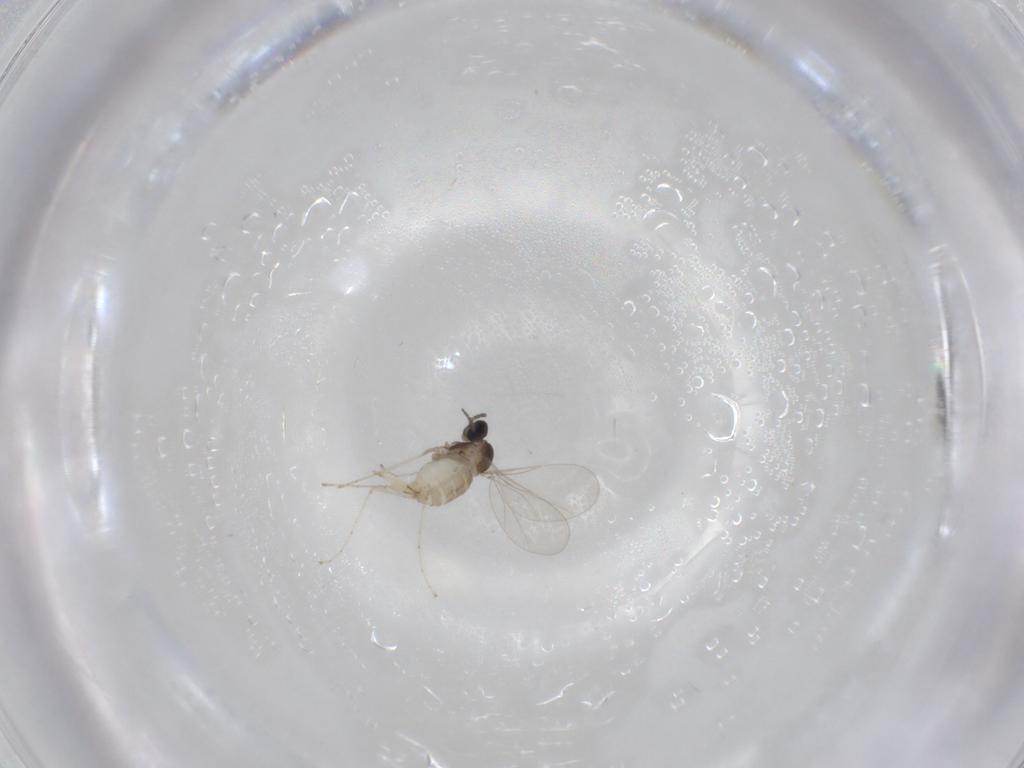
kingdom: Animalia
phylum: Arthropoda
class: Insecta
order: Diptera
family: Cecidomyiidae
